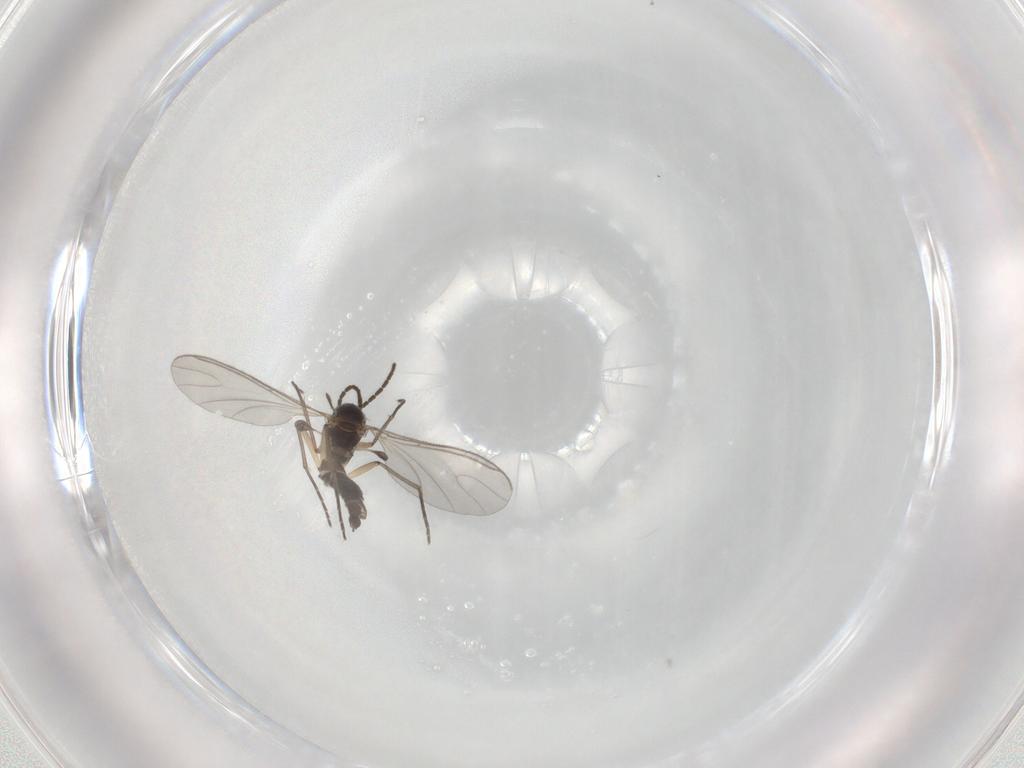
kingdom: Animalia
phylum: Arthropoda
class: Insecta
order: Diptera
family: Sciaridae
